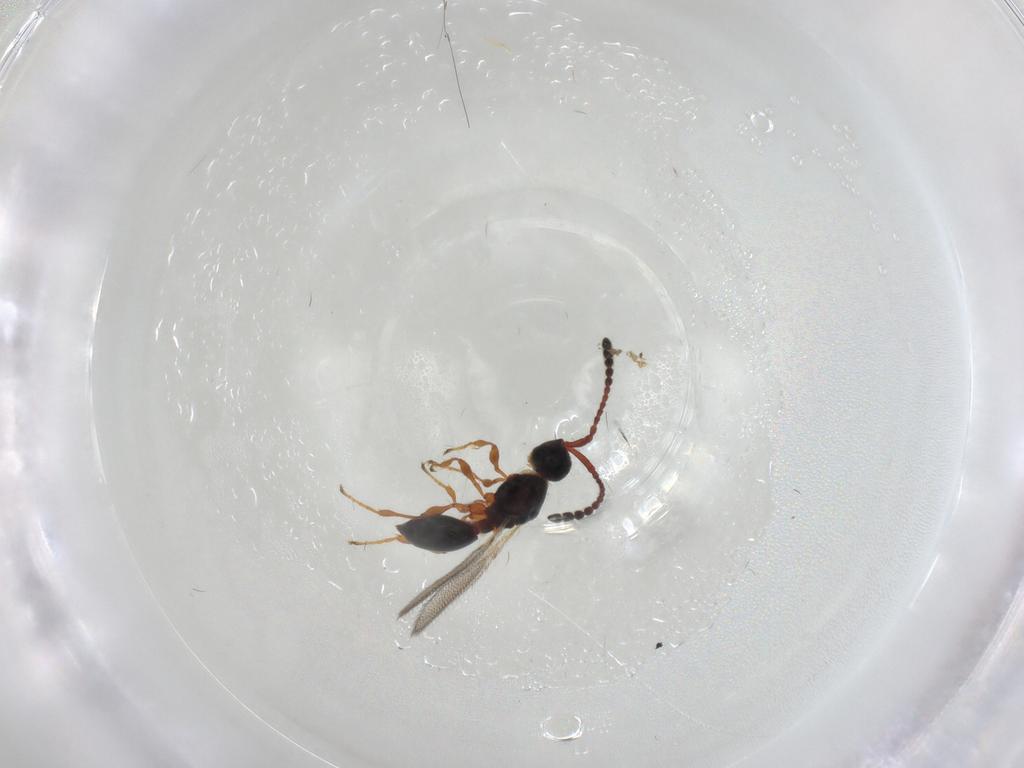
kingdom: Animalia
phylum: Arthropoda
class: Insecta
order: Hymenoptera
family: Diapriidae
